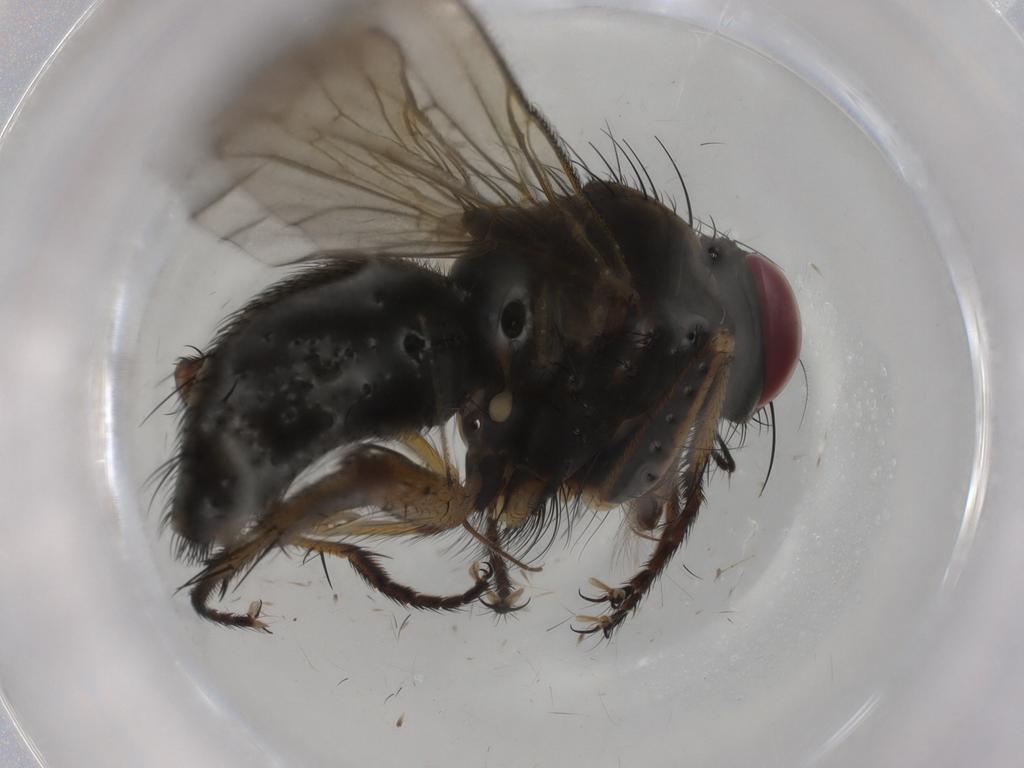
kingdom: Animalia
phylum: Arthropoda
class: Insecta
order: Diptera
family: Muscidae
